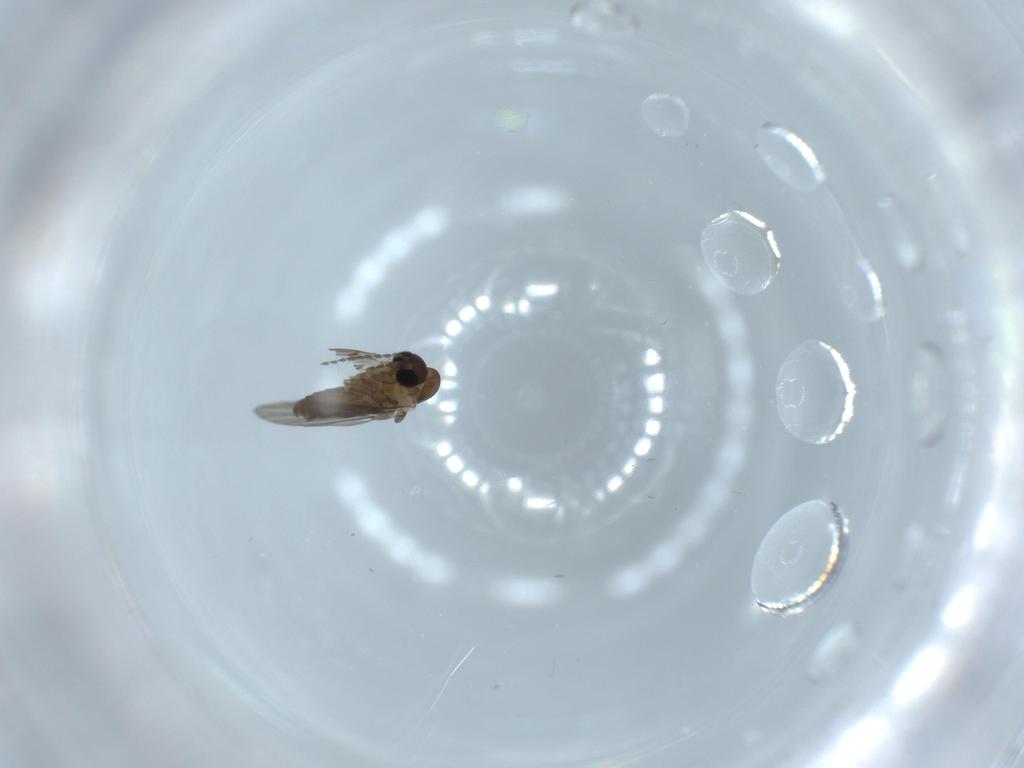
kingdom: Animalia
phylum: Arthropoda
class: Insecta
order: Diptera
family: Psychodidae
